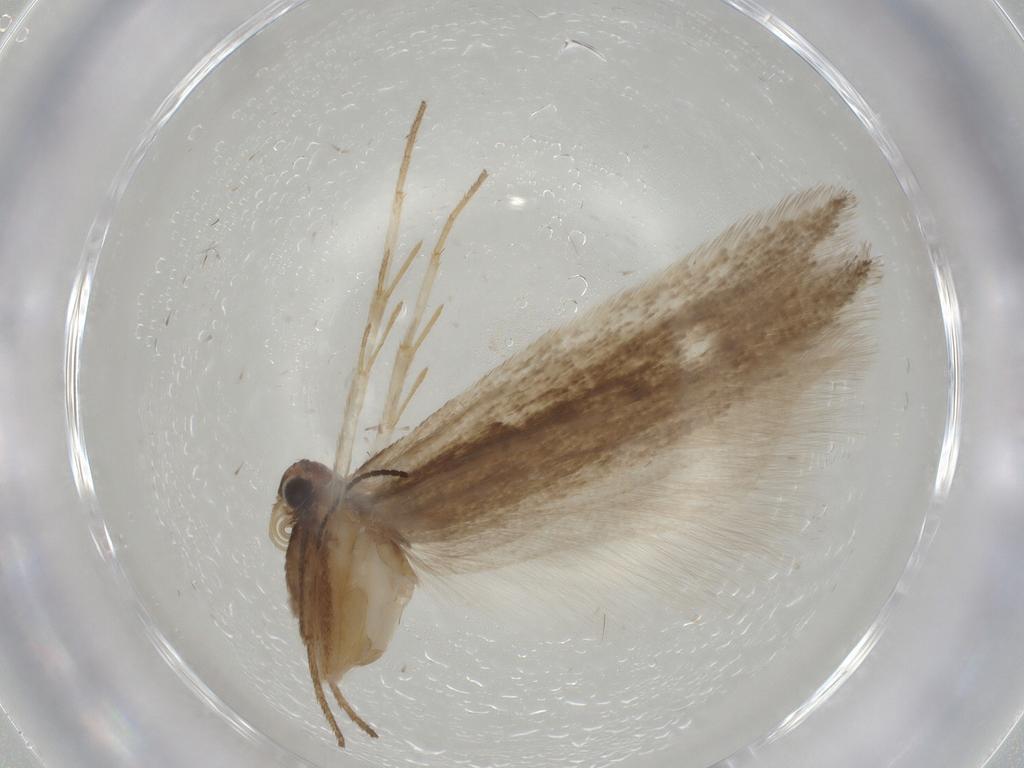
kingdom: Animalia
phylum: Arthropoda
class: Insecta
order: Lepidoptera
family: Gelechiidae
